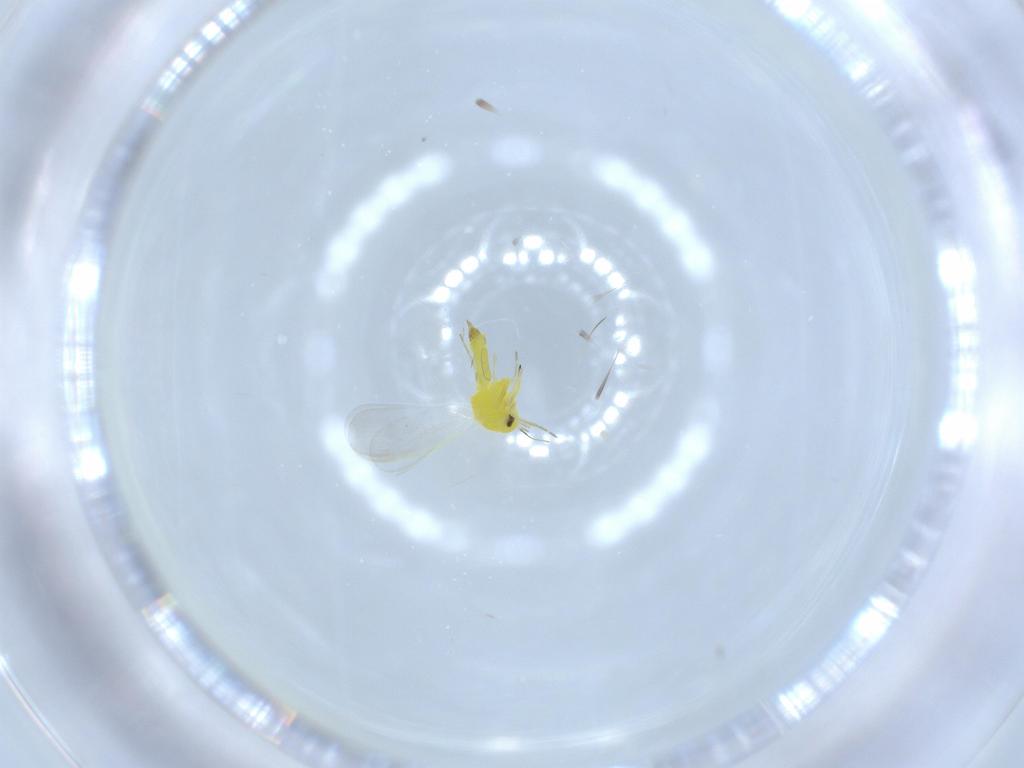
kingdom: Animalia
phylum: Arthropoda
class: Insecta
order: Hemiptera
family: Aleyrodidae
